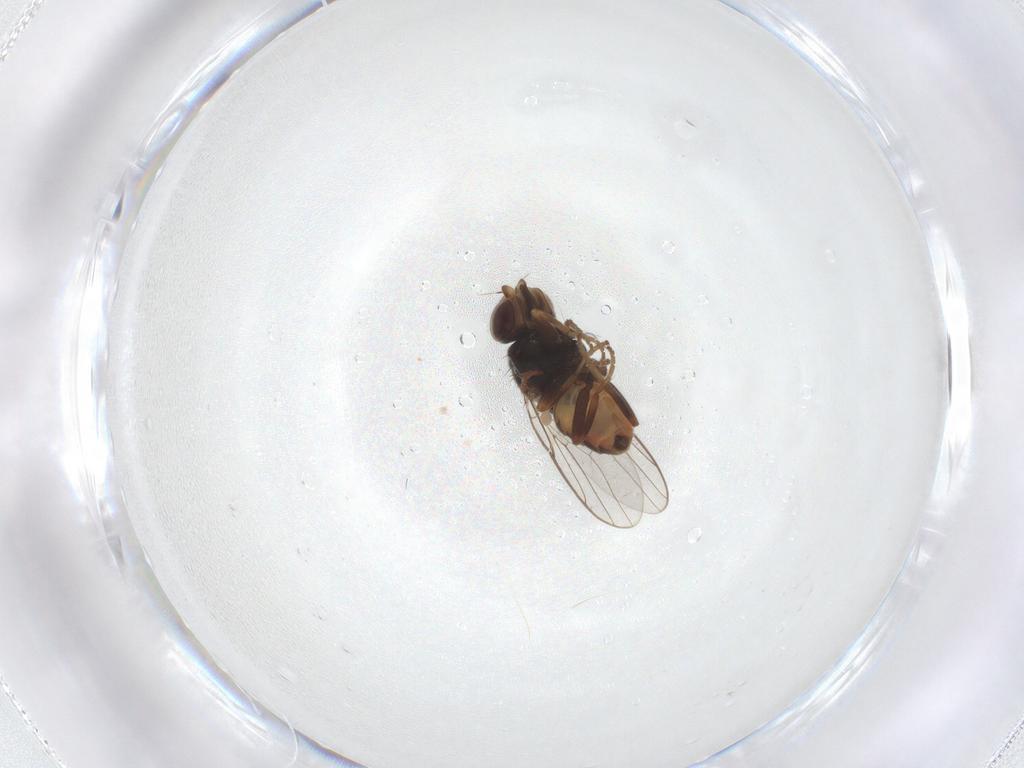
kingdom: Animalia
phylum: Arthropoda
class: Insecta
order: Diptera
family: Chloropidae
